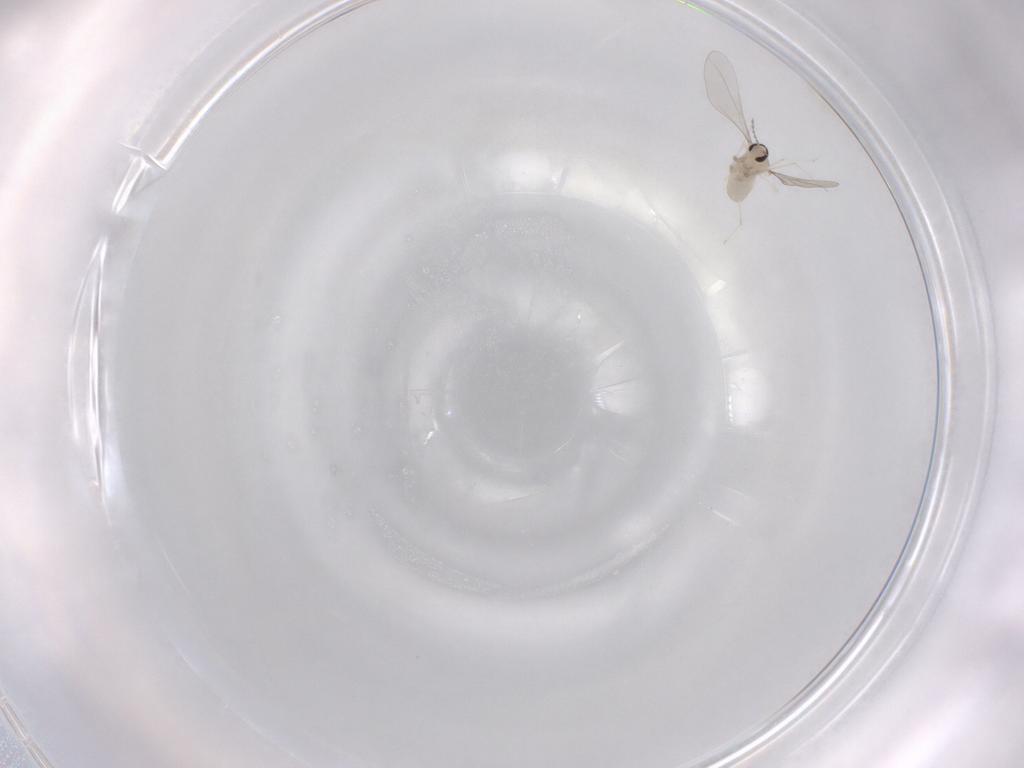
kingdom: Animalia
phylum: Arthropoda
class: Insecta
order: Diptera
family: Cecidomyiidae
